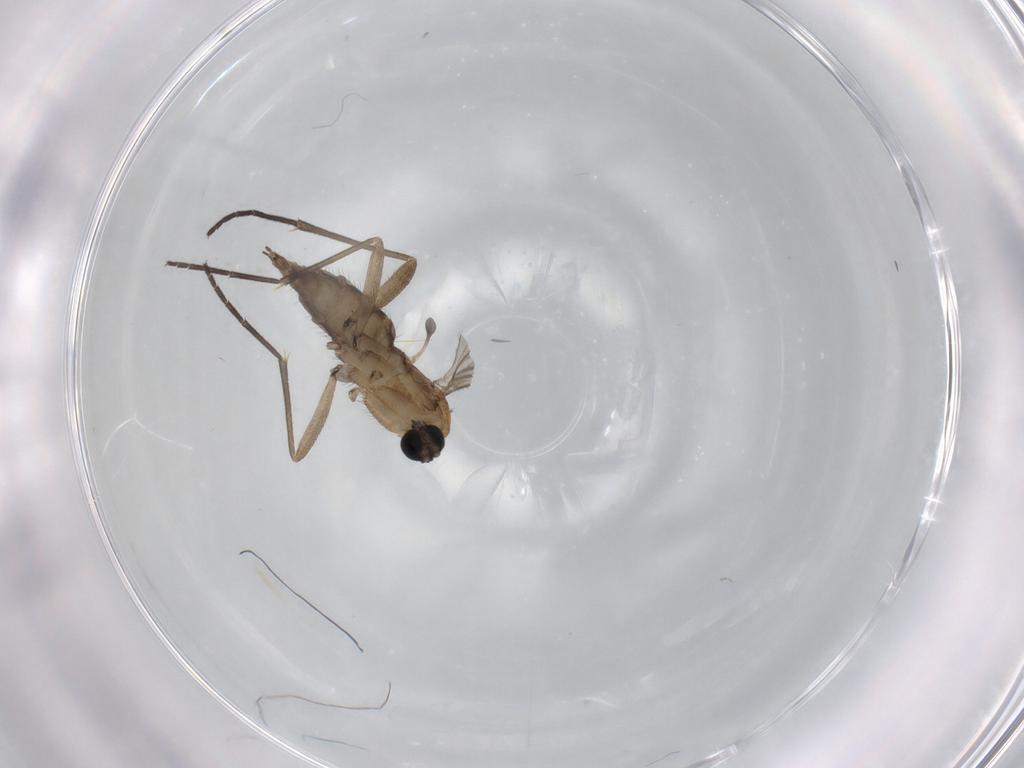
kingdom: Animalia
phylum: Arthropoda
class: Insecta
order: Diptera
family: Sciaridae
